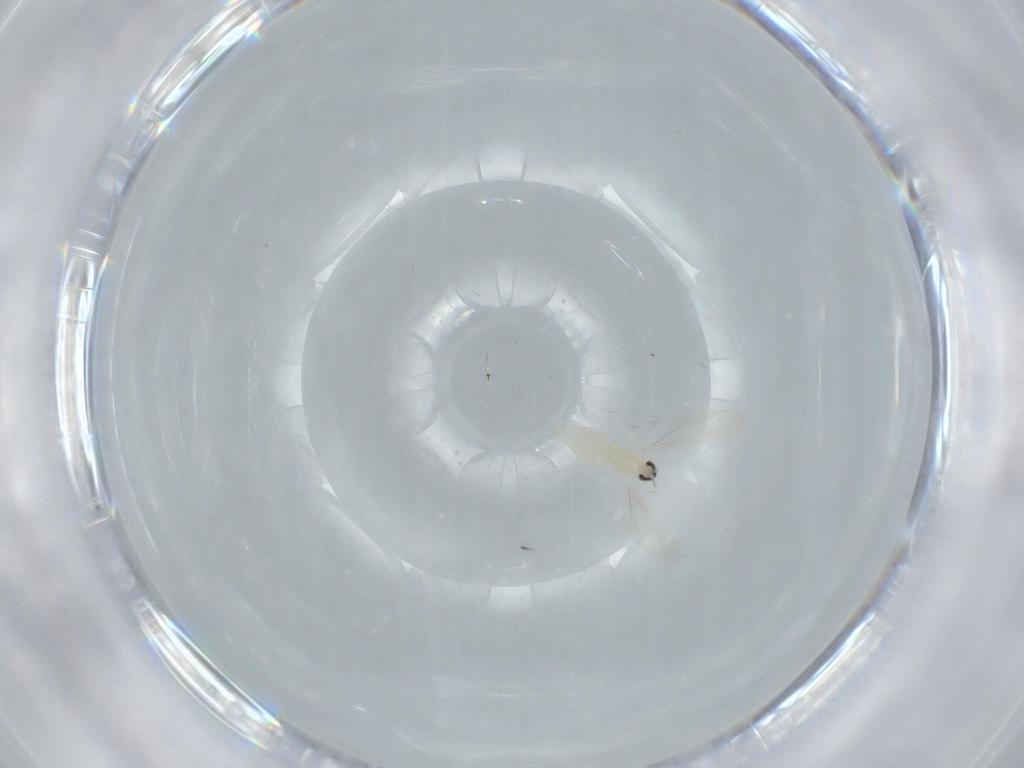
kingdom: Animalia
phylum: Arthropoda
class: Insecta
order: Diptera
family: Cecidomyiidae
